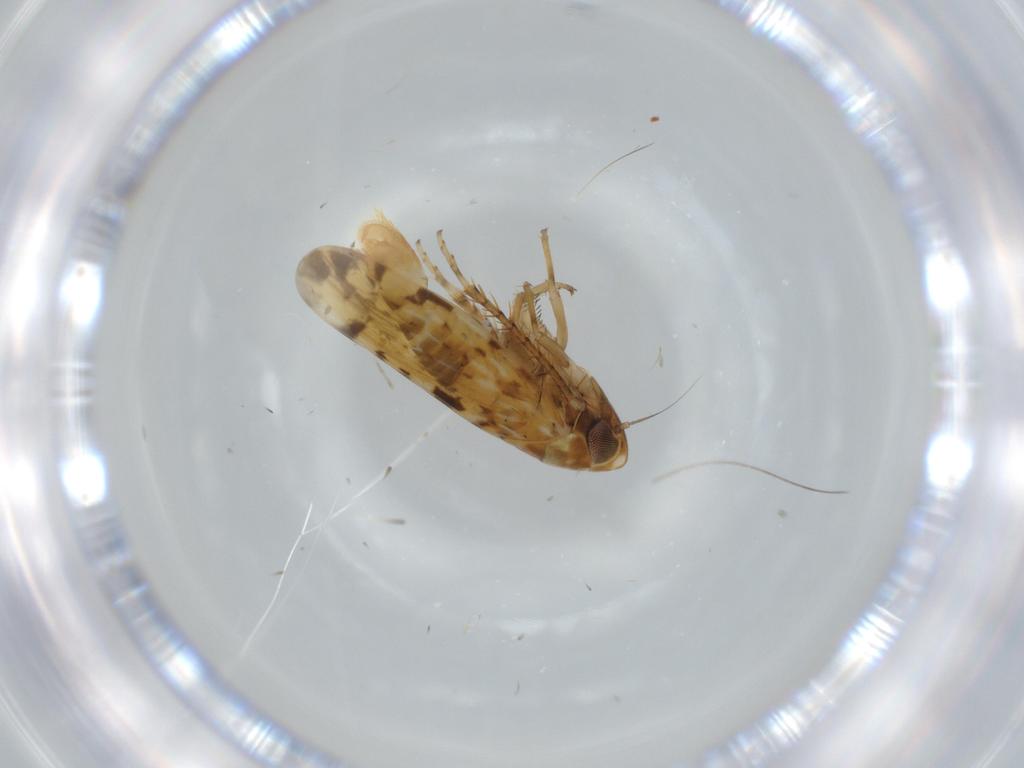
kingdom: Animalia
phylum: Arthropoda
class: Insecta
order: Hemiptera
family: Cicadellidae
